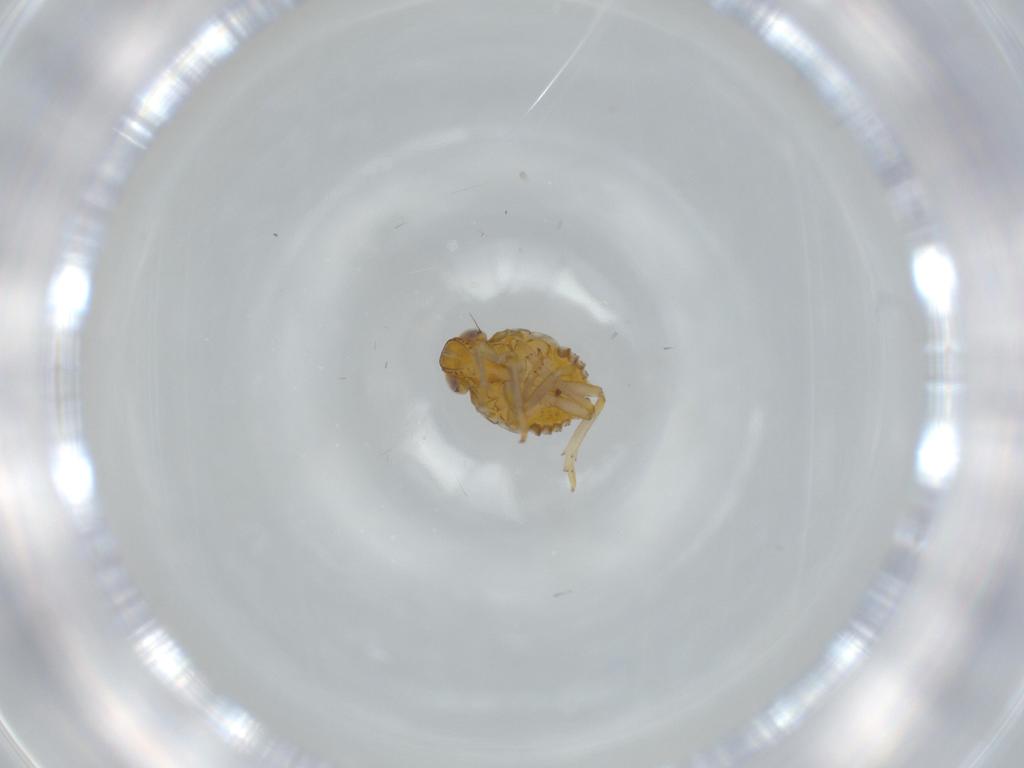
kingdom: Animalia
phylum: Arthropoda
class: Insecta
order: Hemiptera
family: Issidae
